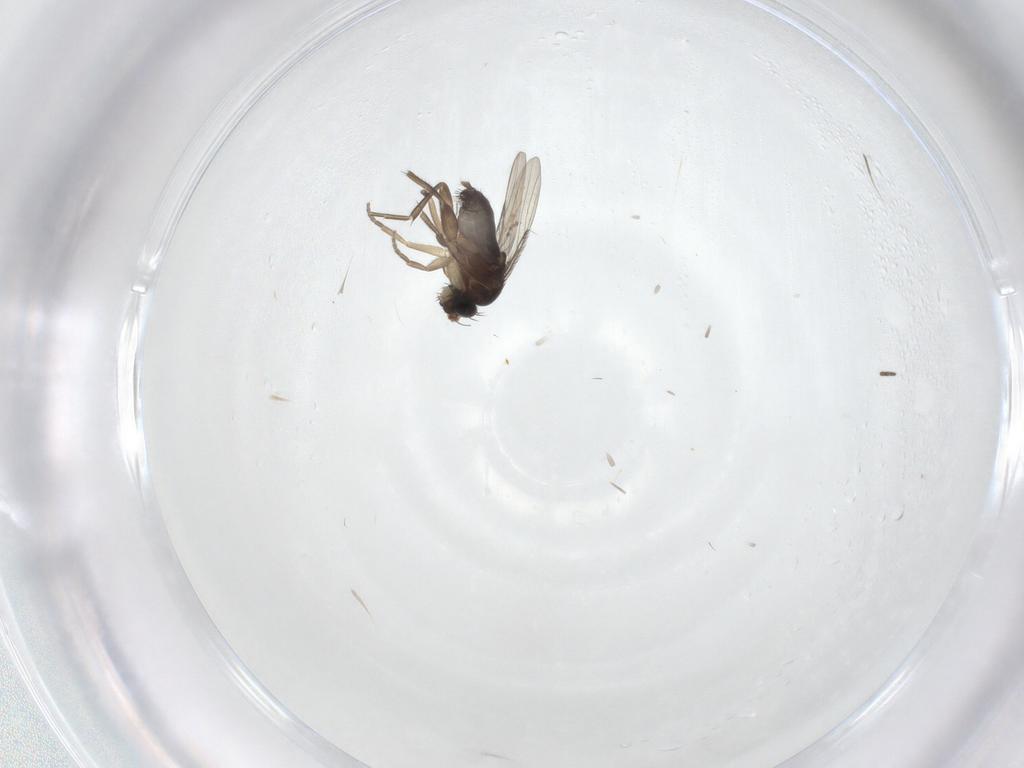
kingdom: Animalia
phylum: Arthropoda
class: Insecta
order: Diptera
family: Phoridae
